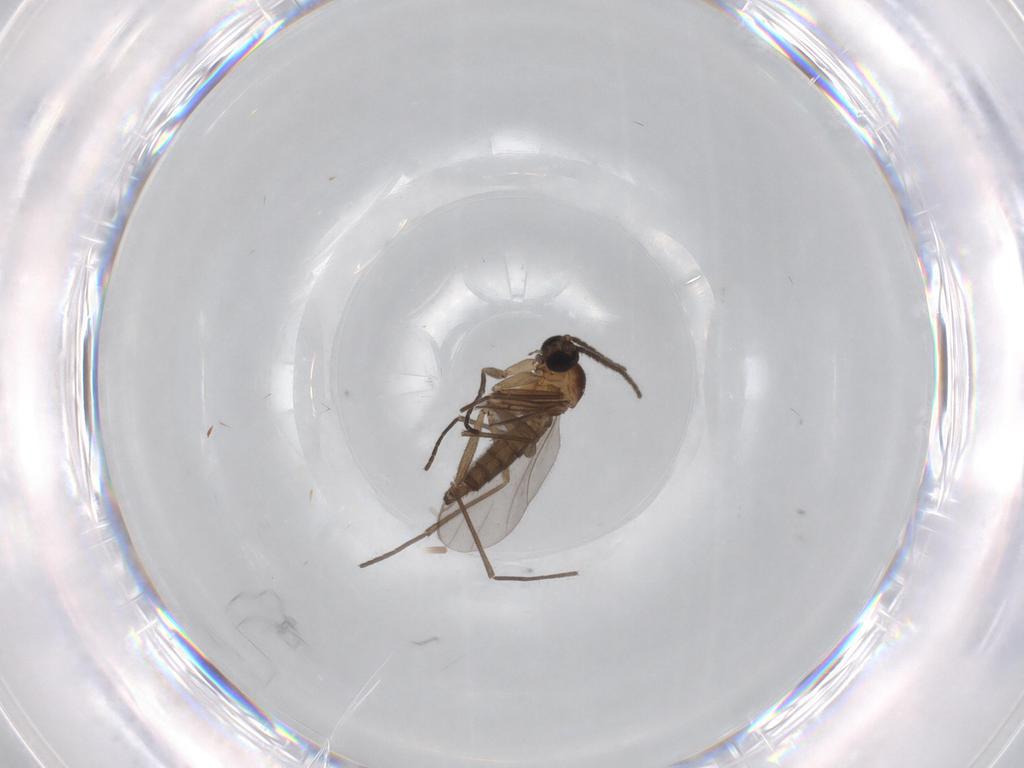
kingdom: Animalia
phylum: Arthropoda
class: Insecta
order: Diptera
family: Sciaridae
